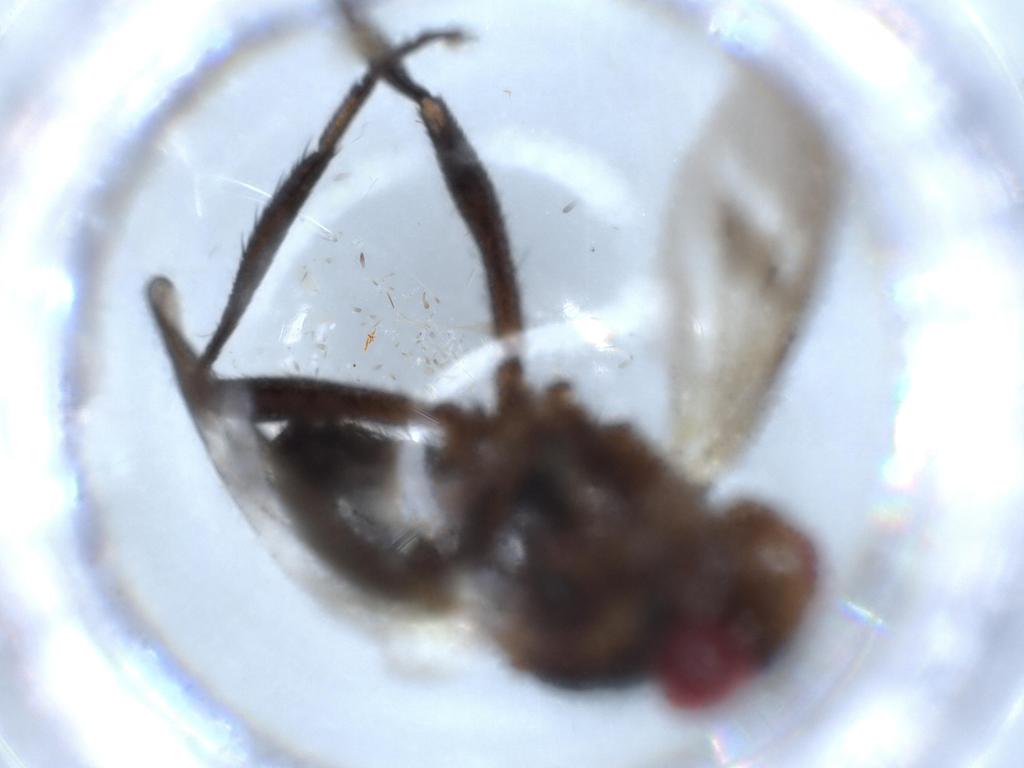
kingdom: Animalia
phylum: Arthropoda
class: Insecta
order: Diptera
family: Calliphoridae
